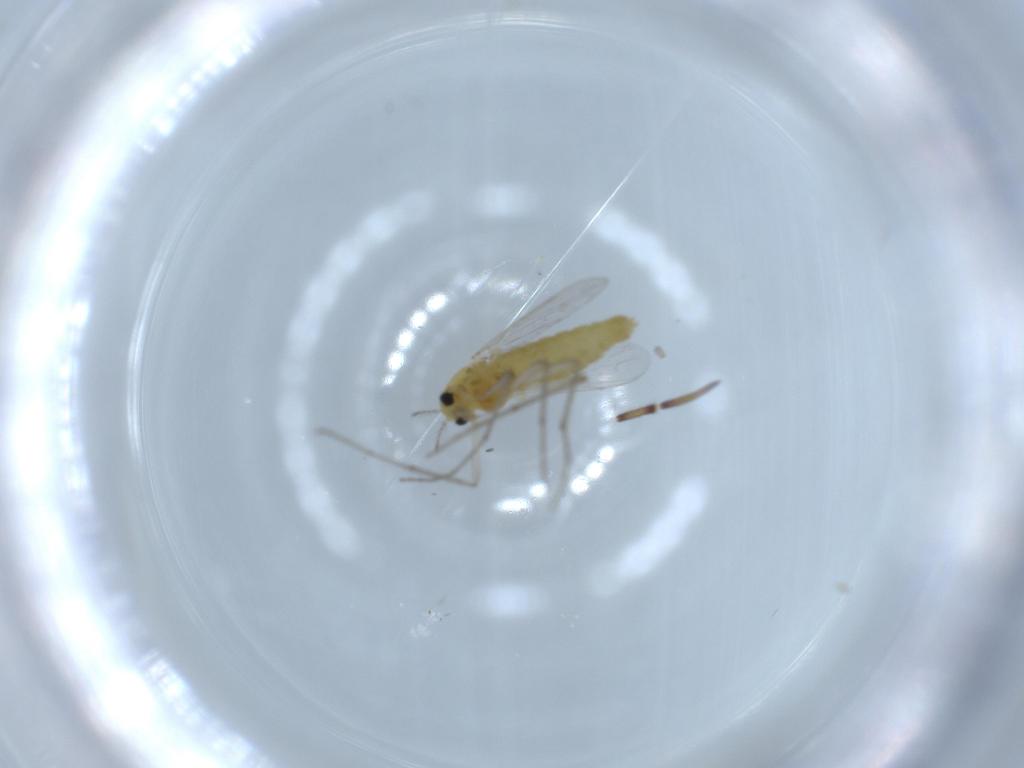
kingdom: Animalia
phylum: Arthropoda
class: Insecta
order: Diptera
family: Chironomidae
